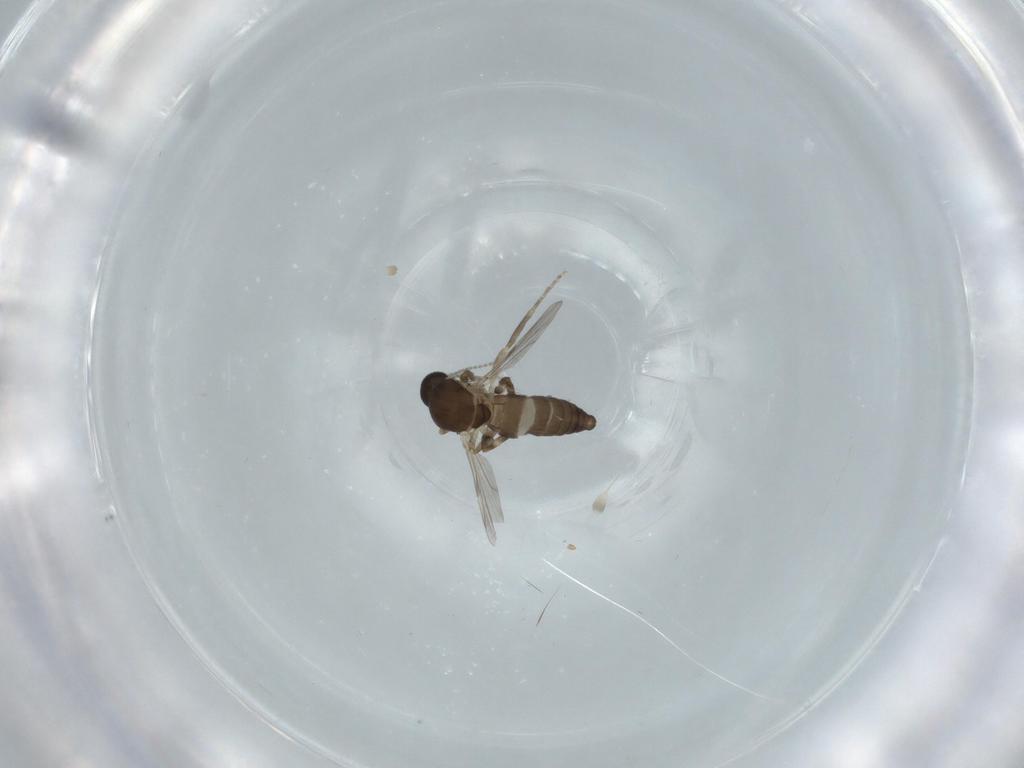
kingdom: Animalia
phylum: Arthropoda
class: Insecta
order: Diptera
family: Ceratopogonidae
